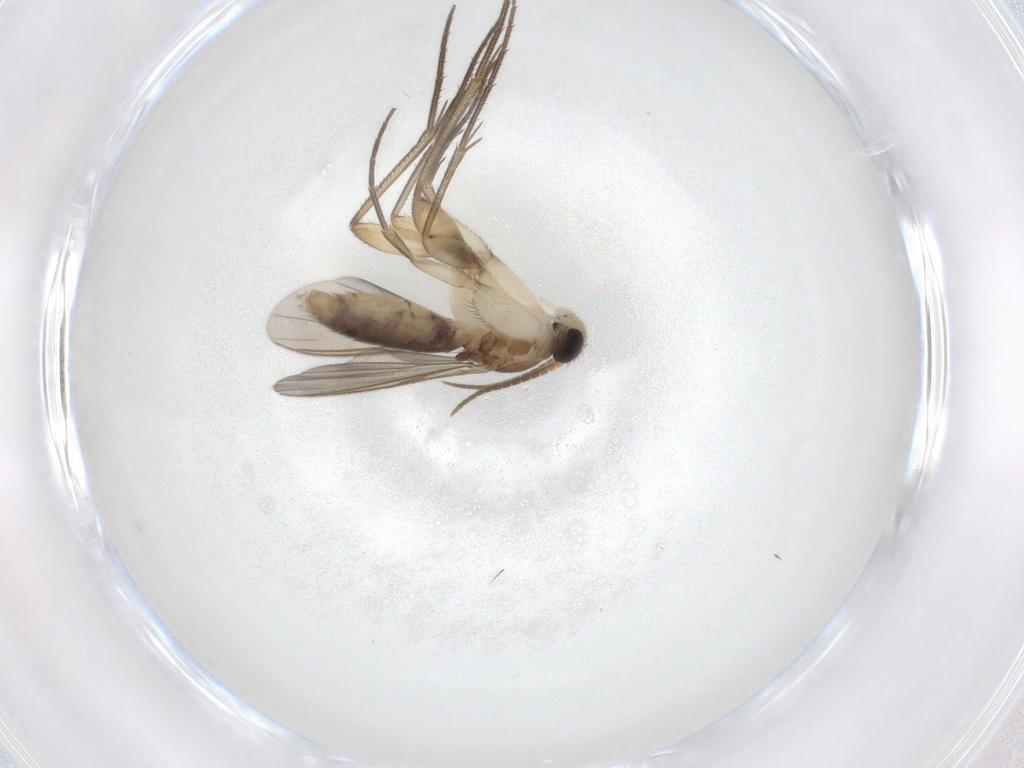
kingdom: Animalia
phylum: Arthropoda
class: Insecta
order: Diptera
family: Mycetophilidae
